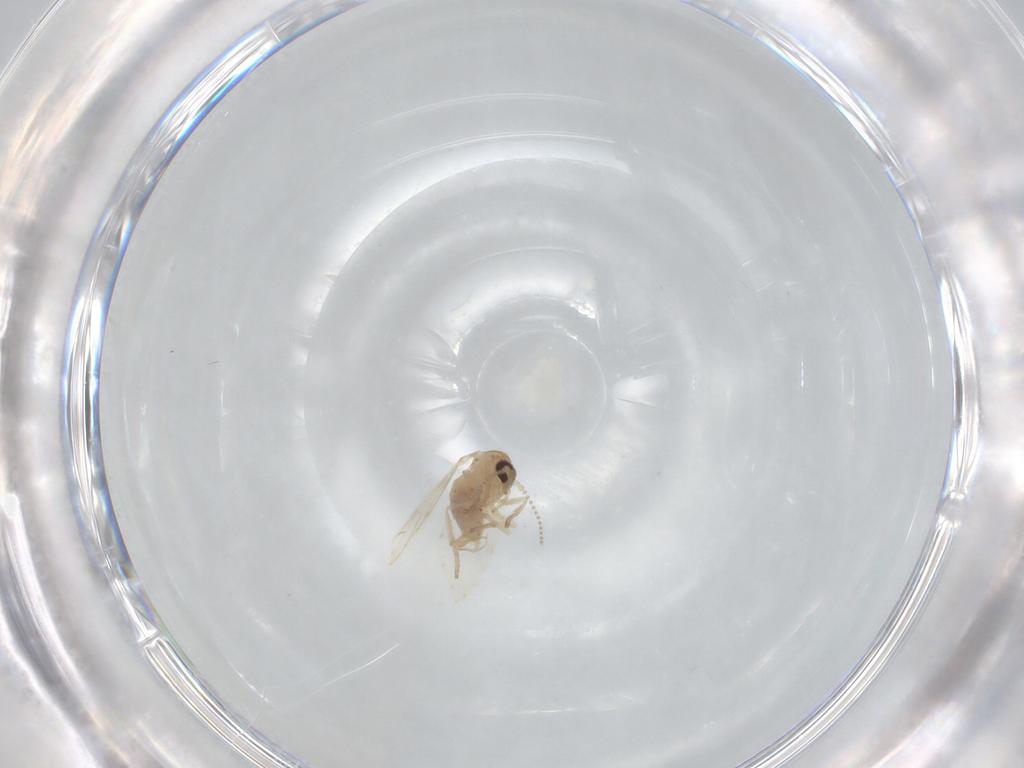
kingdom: Animalia
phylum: Arthropoda
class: Insecta
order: Diptera
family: Psychodidae
